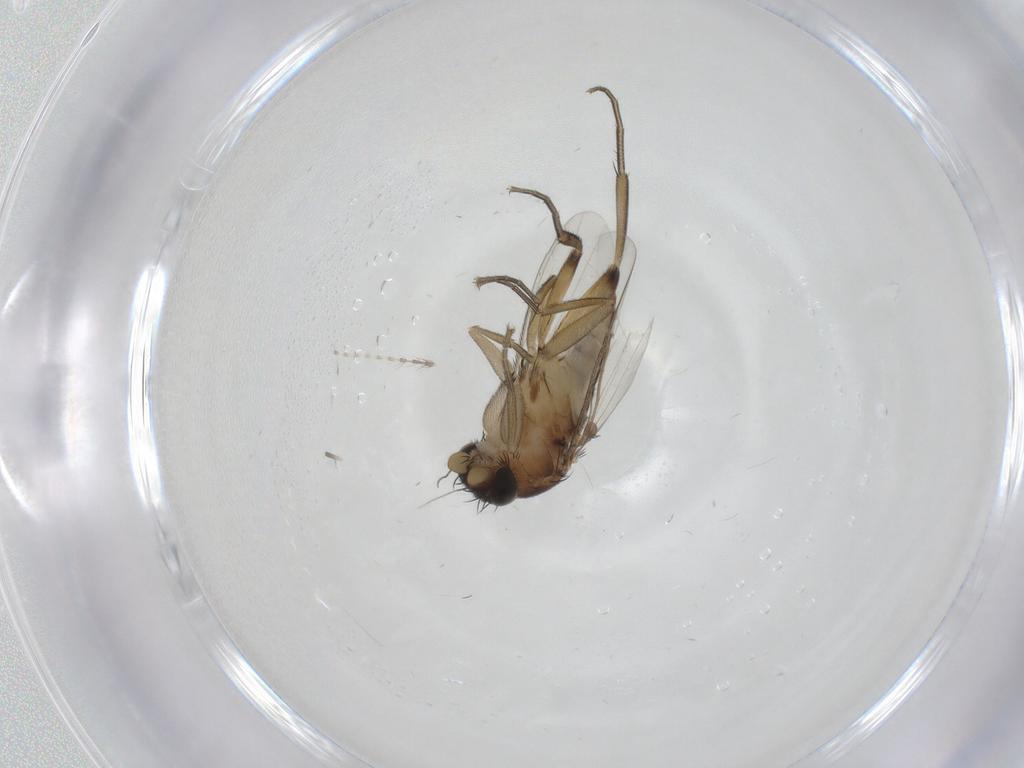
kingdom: Animalia
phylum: Arthropoda
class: Insecta
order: Diptera
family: Phoridae
